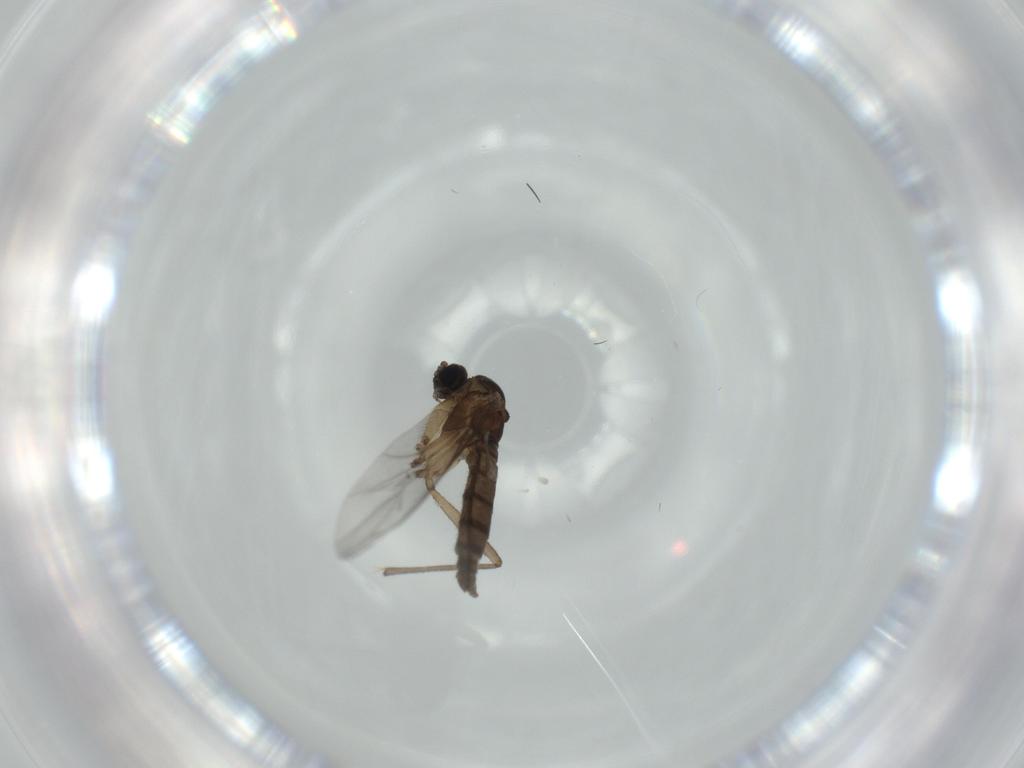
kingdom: Animalia
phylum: Arthropoda
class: Insecta
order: Diptera
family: Sciaridae
